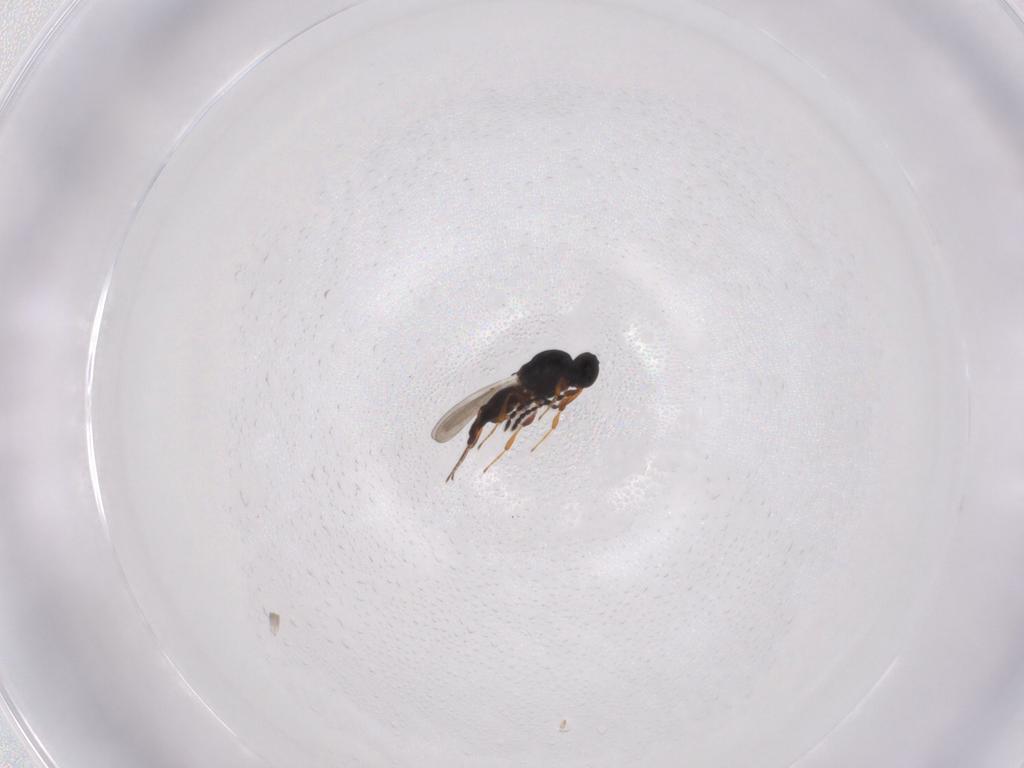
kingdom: Animalia
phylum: Arthropoda
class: Insecta
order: Hymenoptera
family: Platygastridae
